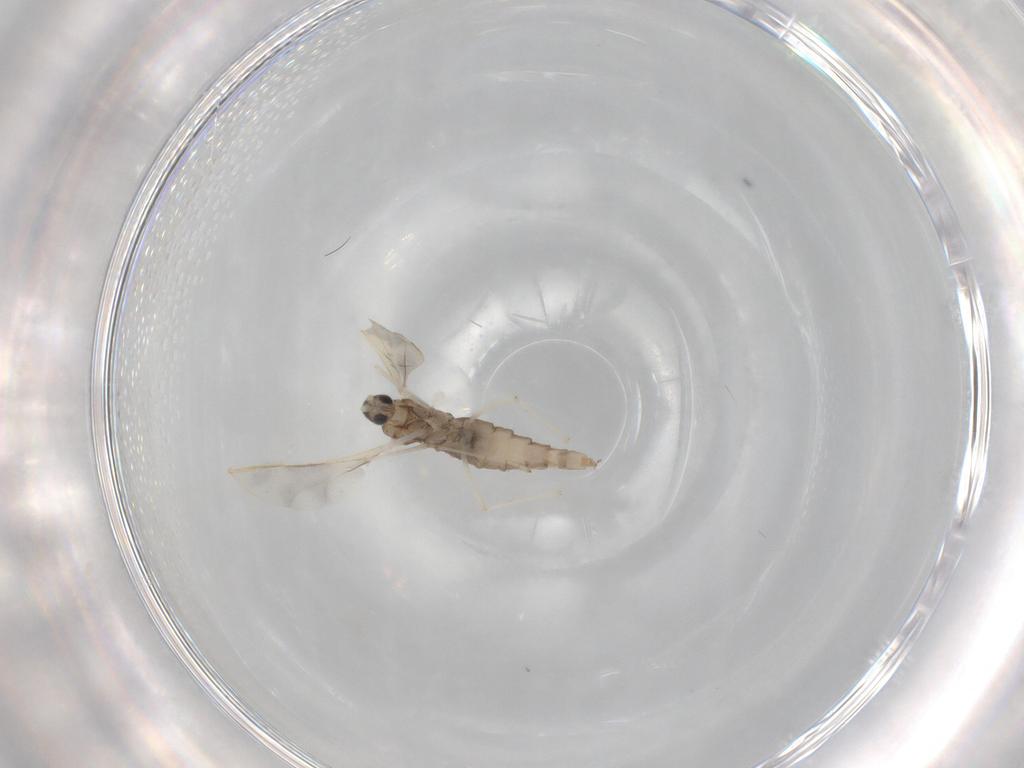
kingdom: Animalia
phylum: Arthropoda
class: Insecta
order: Diptera
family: Cecidomyiidae
